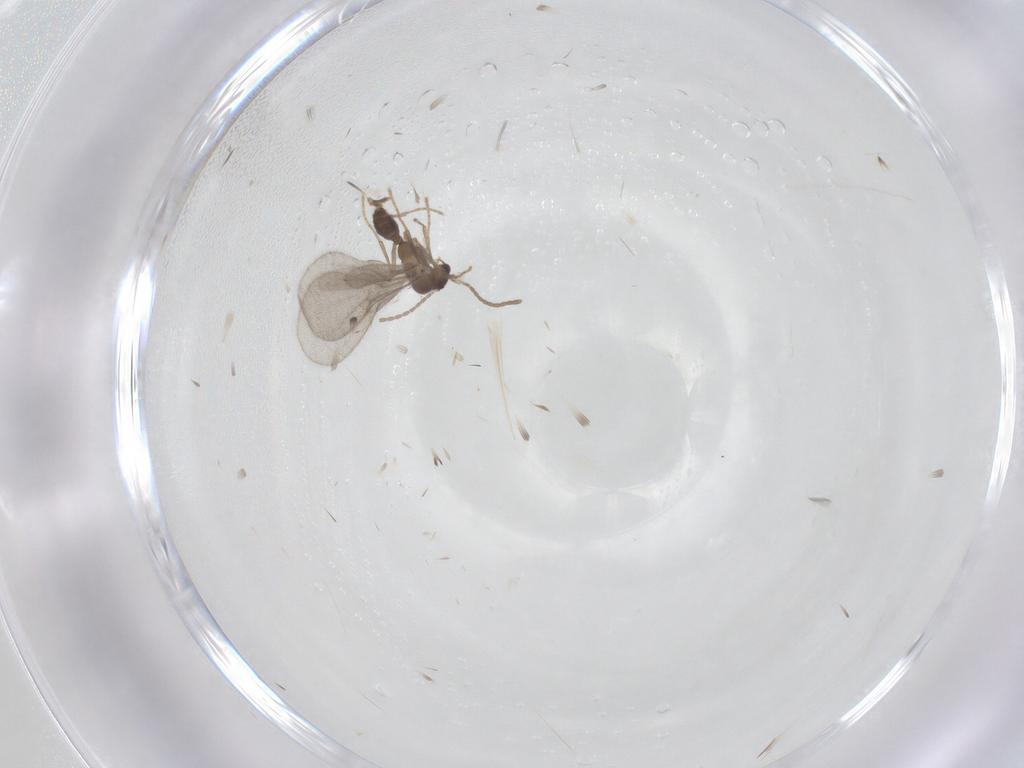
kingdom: Animalia
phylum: Arthropoda
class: Insecta
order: Hymenoptera
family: Formicidae
